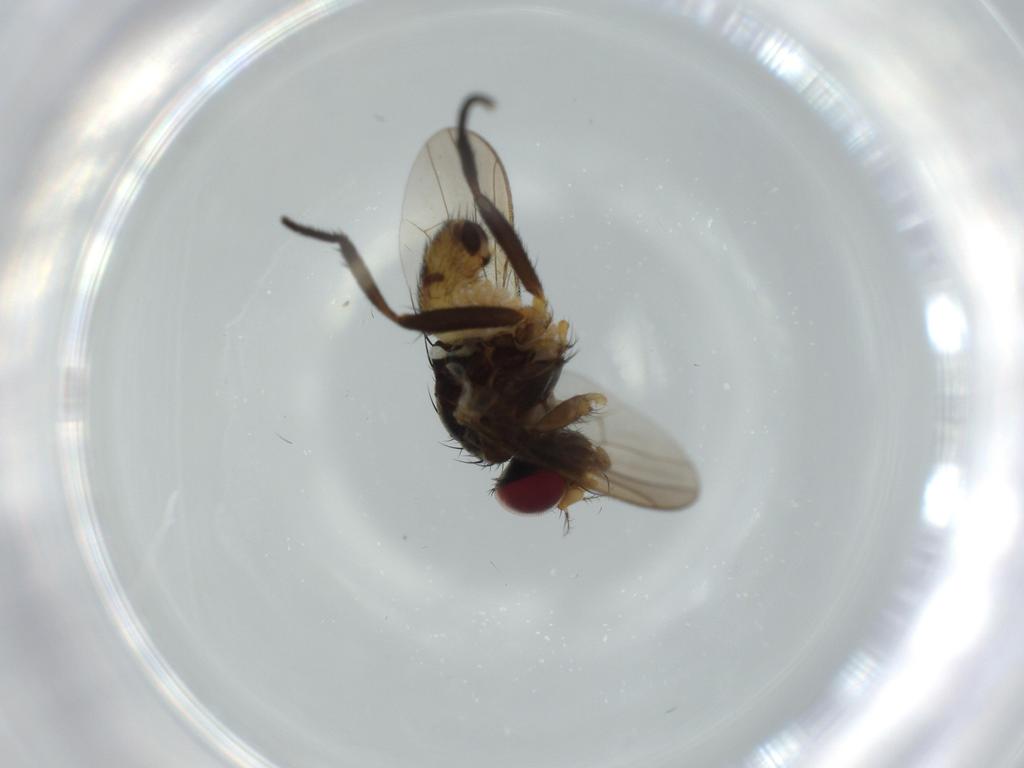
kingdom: Animalia
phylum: Arthropoda
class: Insecta
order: Diptera
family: Anthomyiidae
